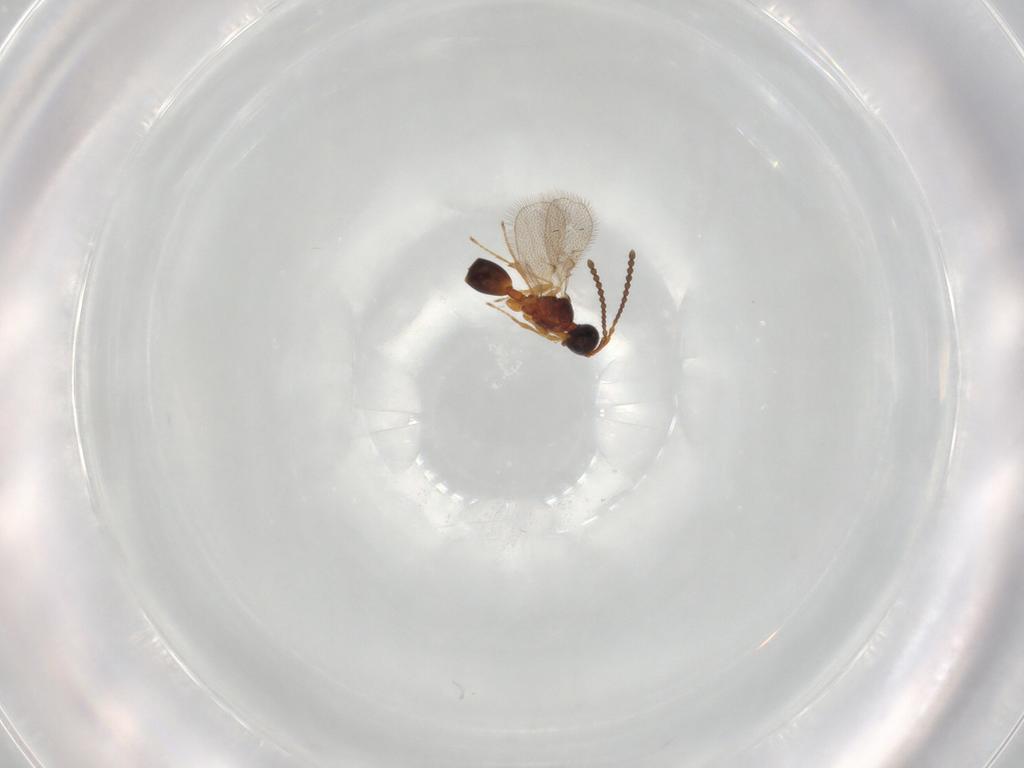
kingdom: Animalia
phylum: Arthropoda
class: Insecta
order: Hymenoptera
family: Diapriidae
